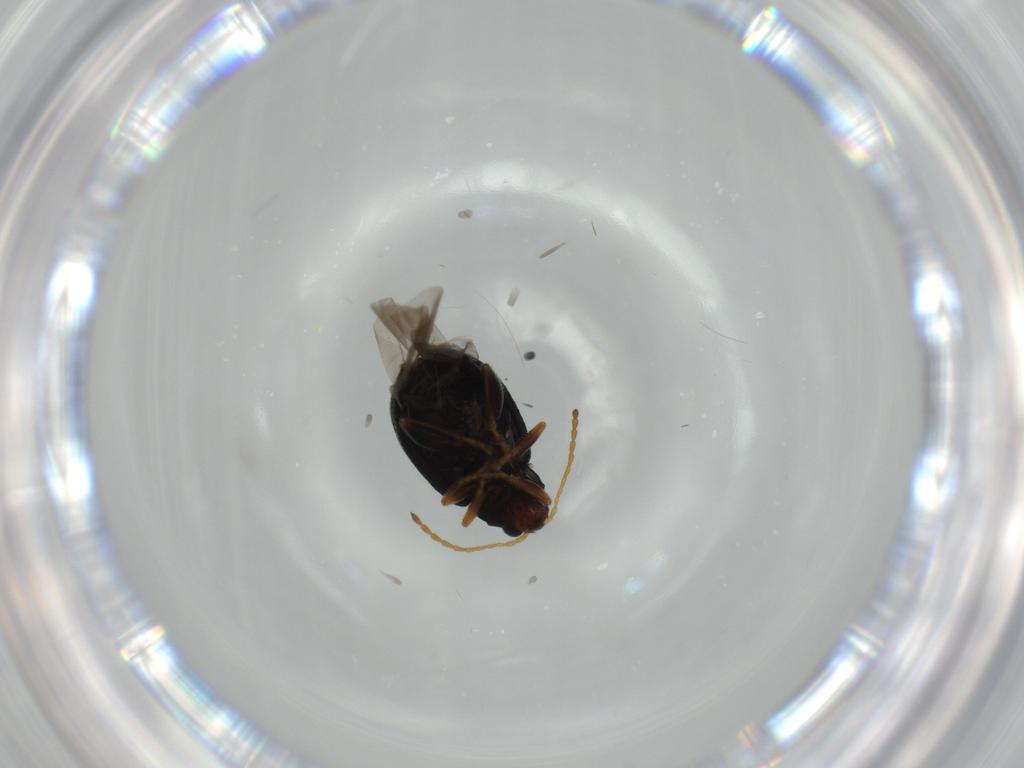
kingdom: Animalia
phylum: Arthropoda
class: Insecta
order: Coleoptera
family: Chrysomelidae
